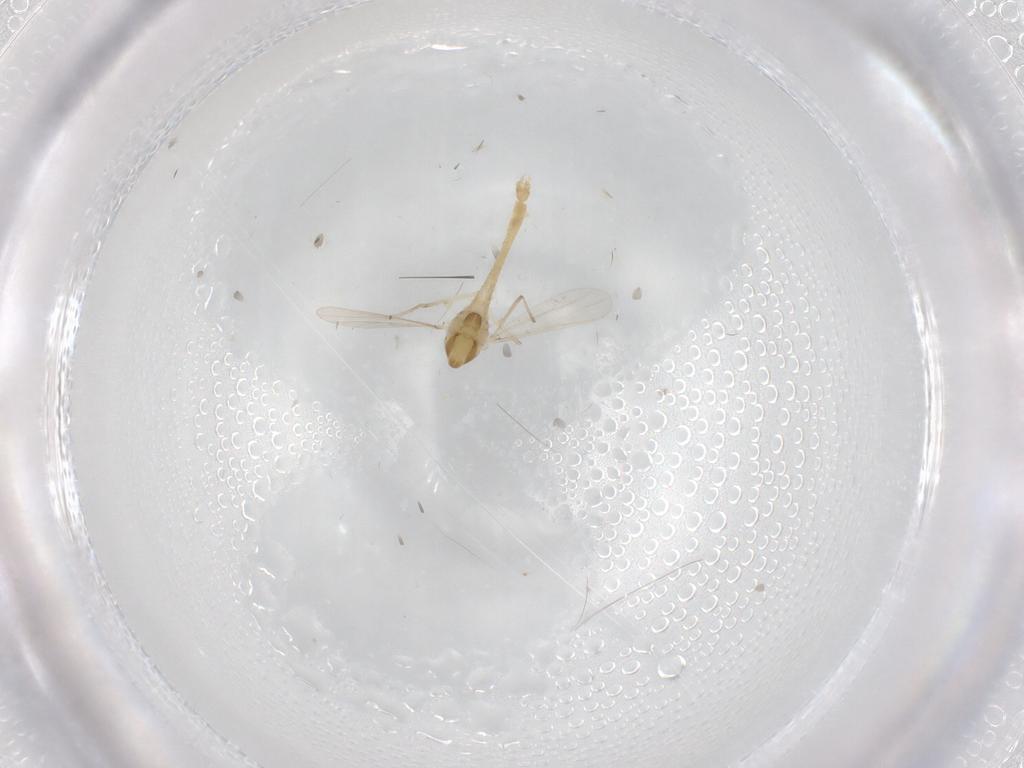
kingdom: Animalia
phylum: Arthropoda
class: Insecta
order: Diptera
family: Chironomidae
